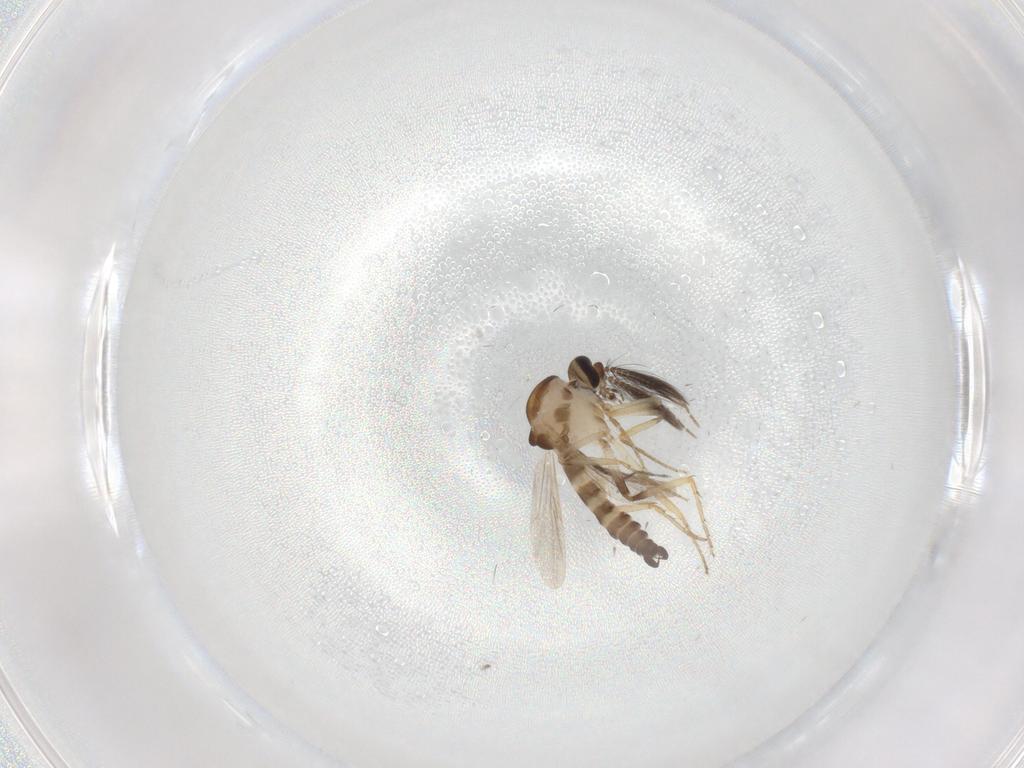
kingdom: Animalia
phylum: Arthropoda
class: Insecta
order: Diptera
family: Ceratopogonidae
